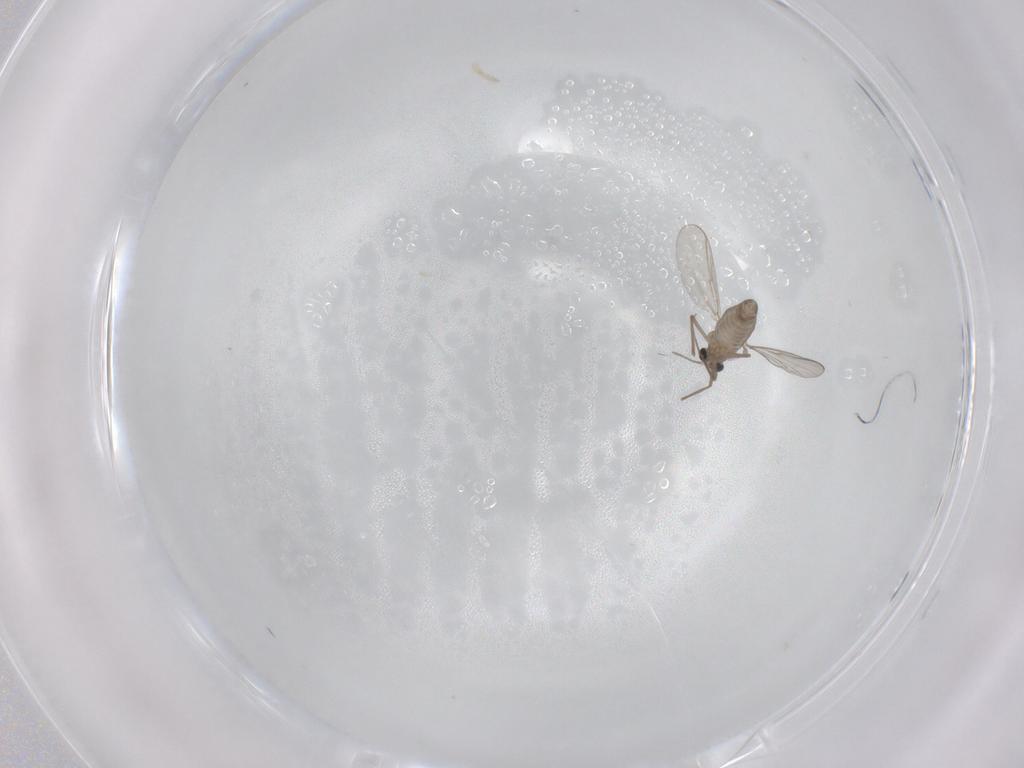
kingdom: Animalia
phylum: Arthropoda
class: Insecta
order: Diptera
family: Chironomidae
